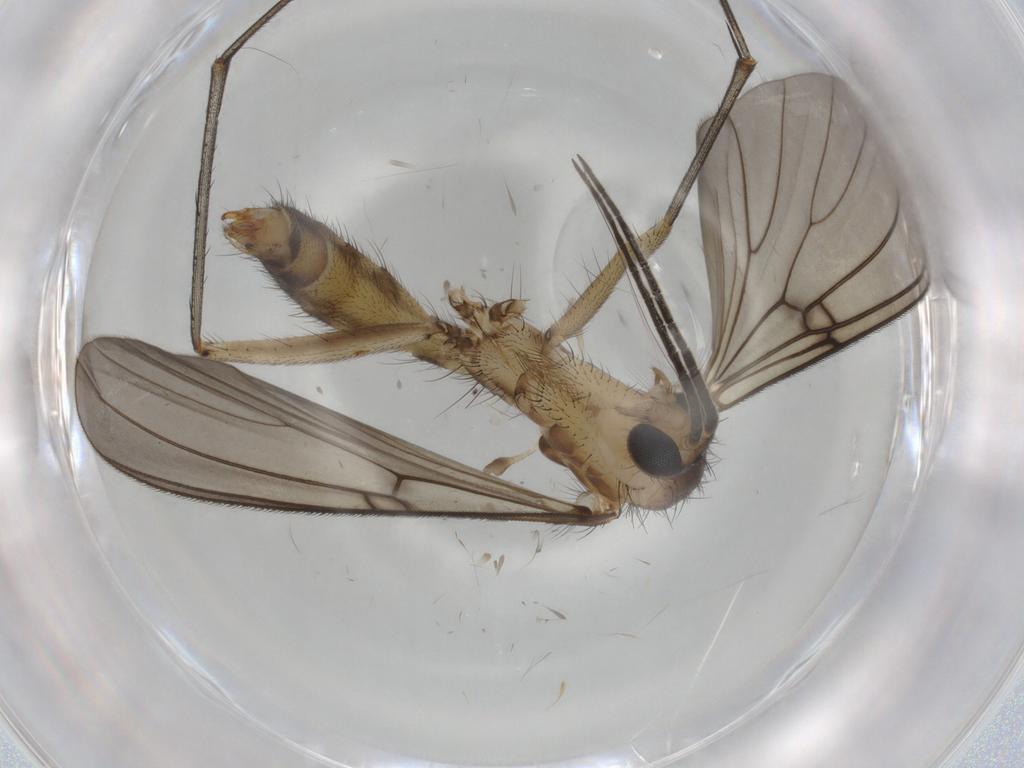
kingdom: Animalia
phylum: Arthropoda
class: Insecta
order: Diptera
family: Mycetophilidae
